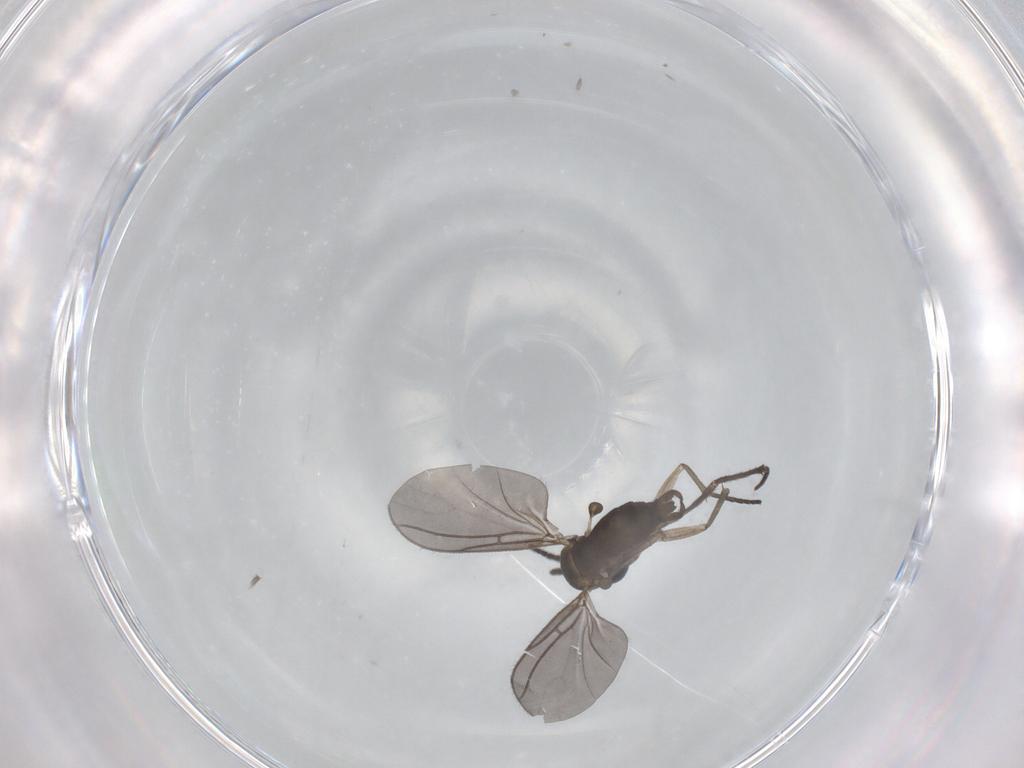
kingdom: Animalia
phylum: Arthropoda
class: Insecta
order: Diptera
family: Sciaridae
